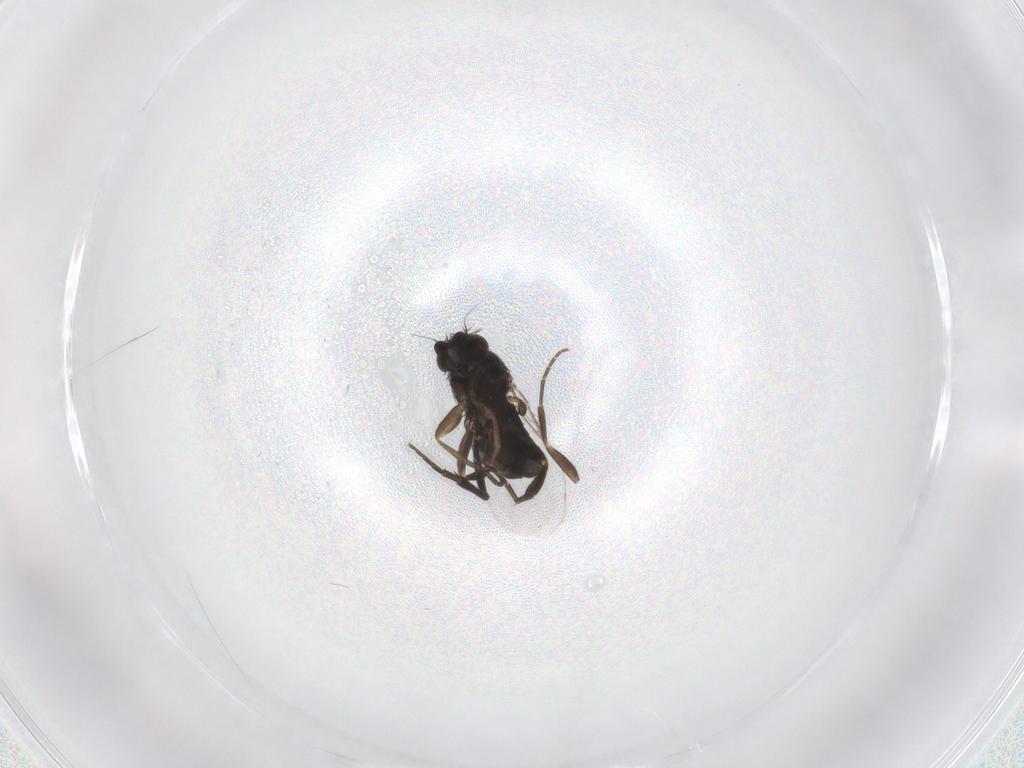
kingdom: Animalia
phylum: Arthropoda
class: Insecta
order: Diptera
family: Phoridae
